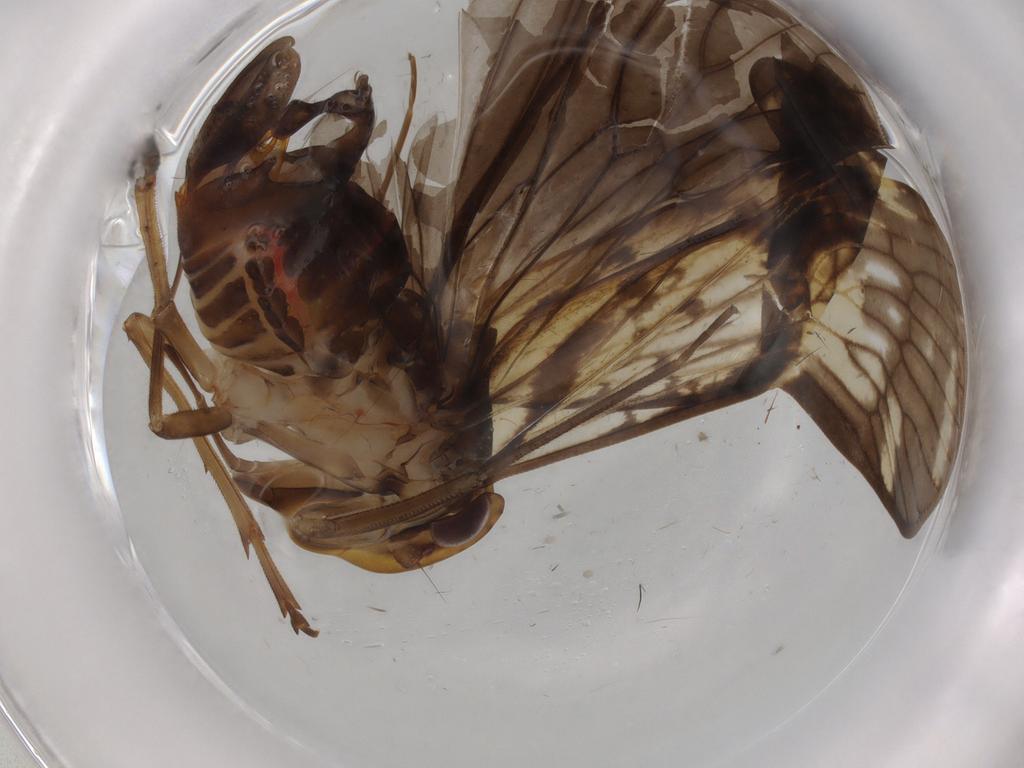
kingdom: Animalia
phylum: Arthropoda
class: Insecta
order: Hemiptera
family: Cixiidae
